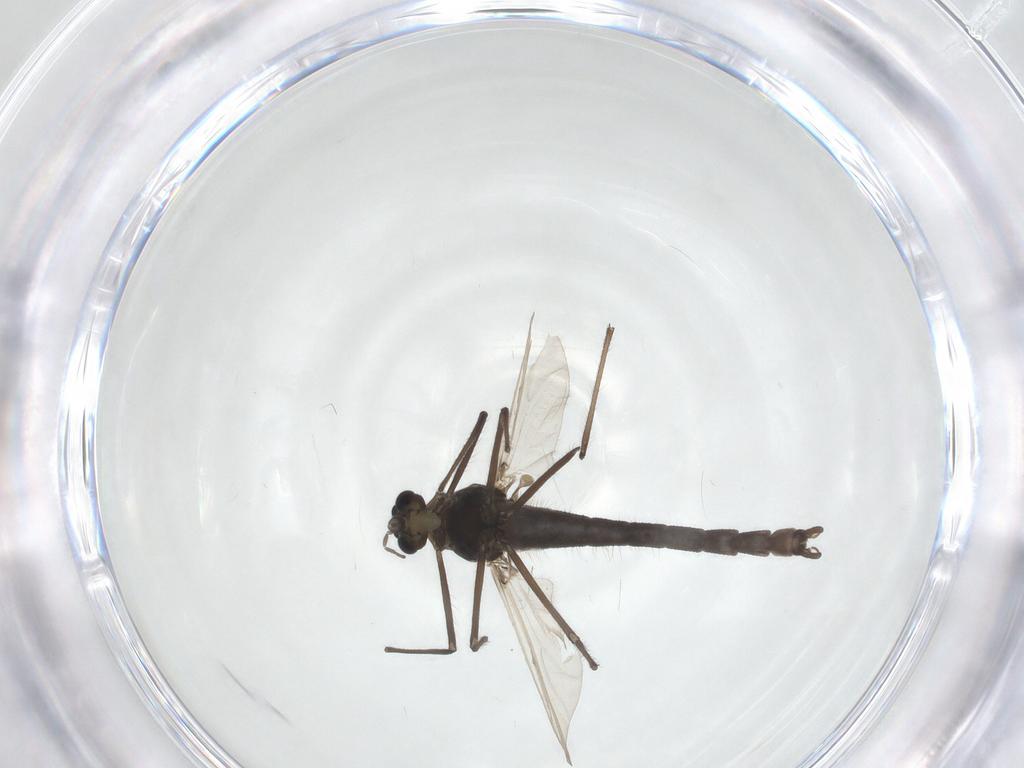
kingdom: Animalia
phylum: Arthropoda
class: Insecta
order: Diptera
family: Chironomidae
